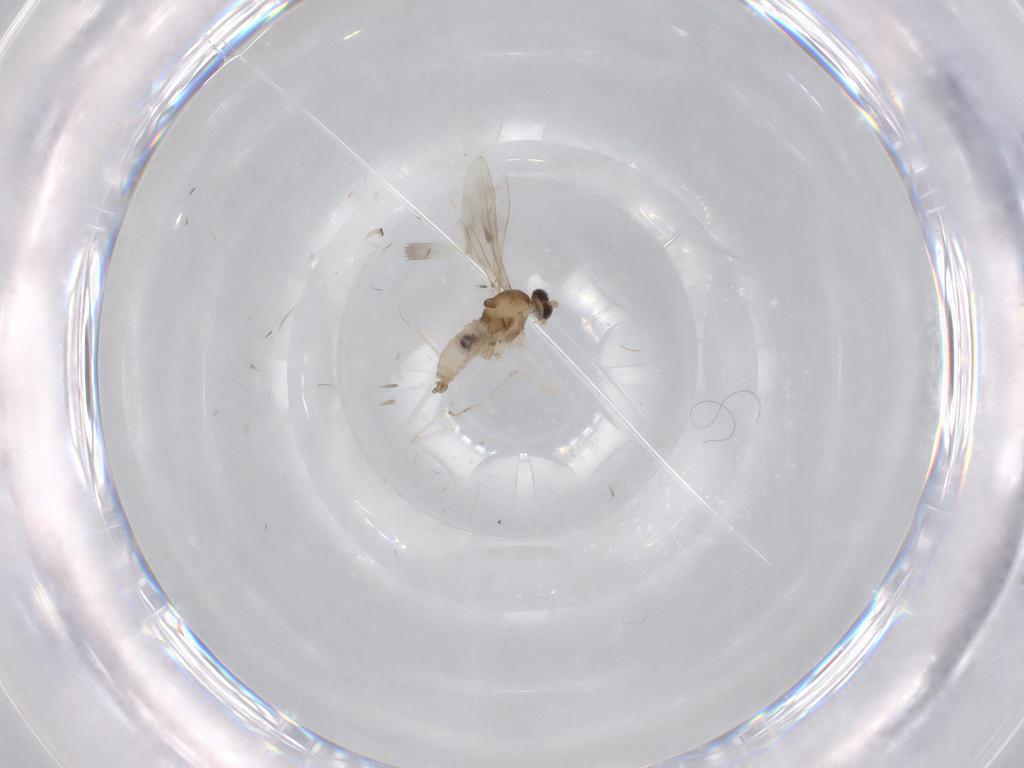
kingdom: Animalia
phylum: Arthropoda
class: Insecta
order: Diptera
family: Cecidomyiidae
